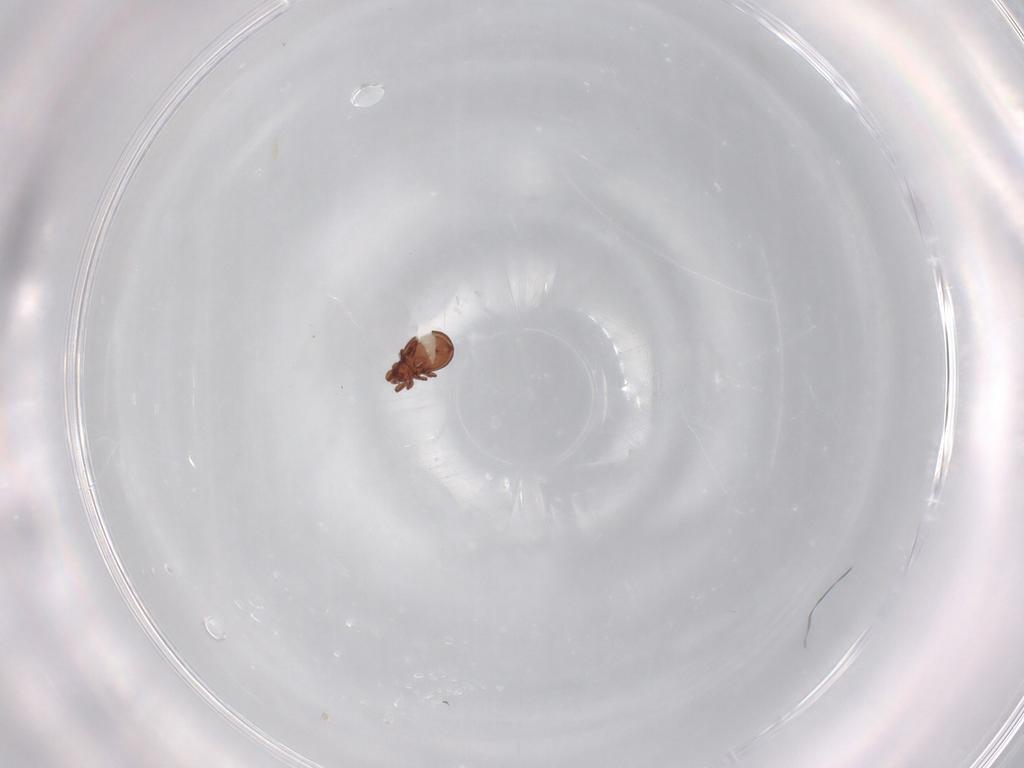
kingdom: Animalia
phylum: Arthropoda
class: Arachnida
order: Sarcoptiformes
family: Eremaeidae
